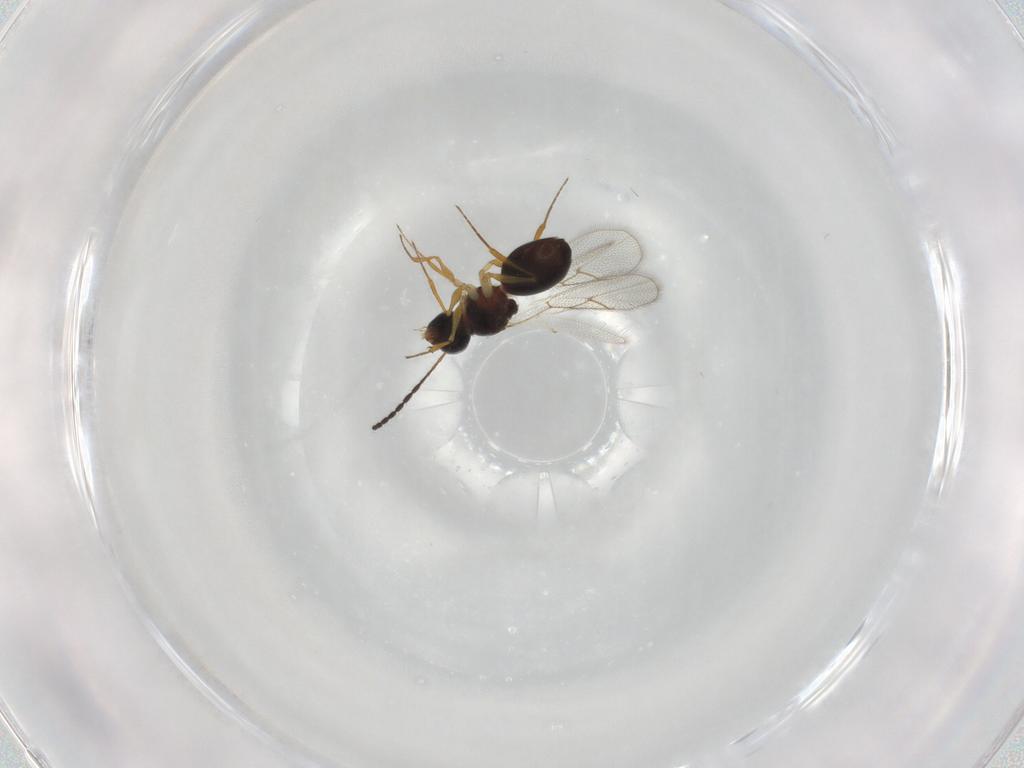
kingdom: Animalia
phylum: Arthropoda
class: Insecta
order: Hymenoptera
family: Figitidae
